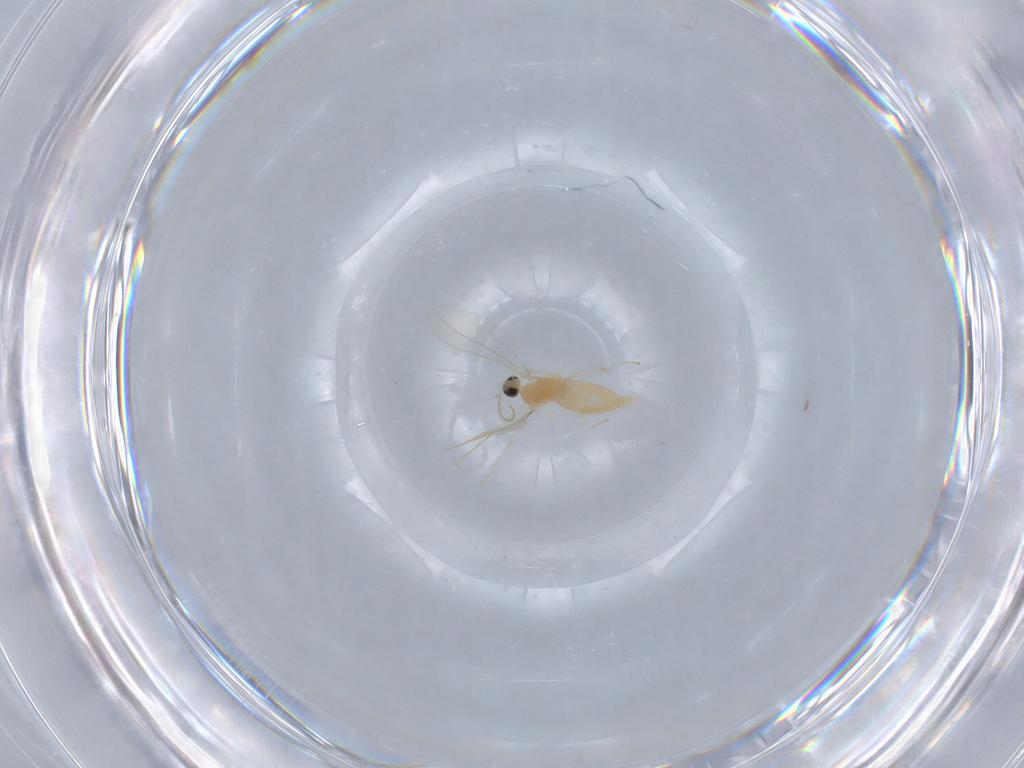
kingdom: Animalia
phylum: Arthropoda
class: Insecta
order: Diptera
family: Cecidomyiidae
